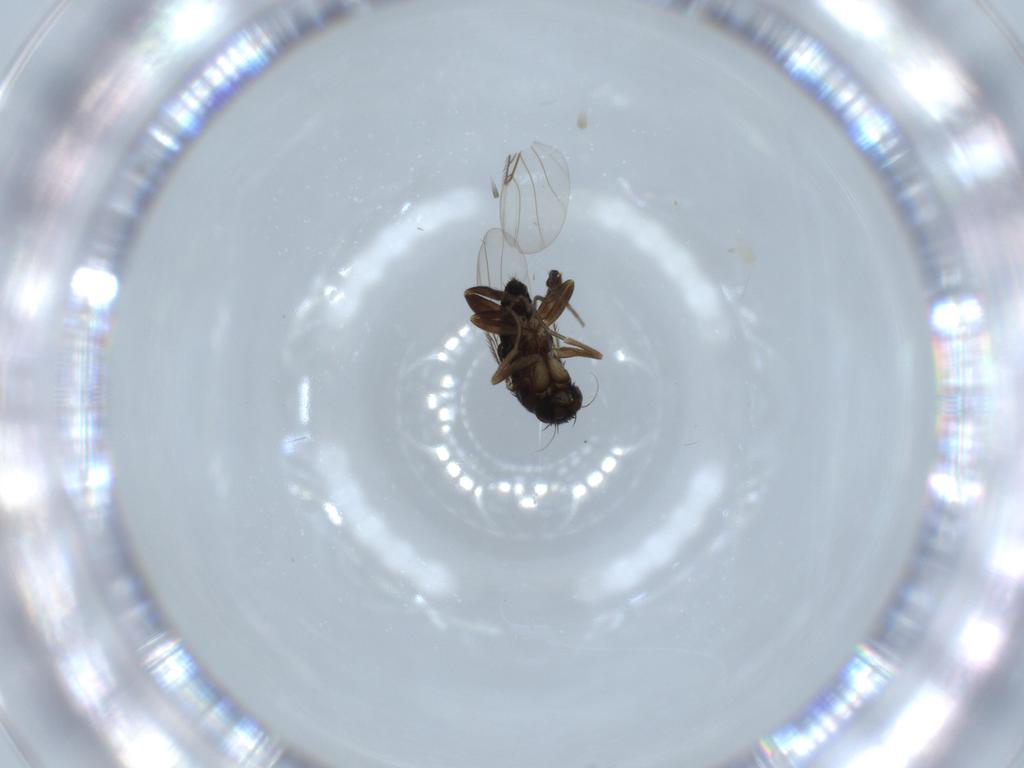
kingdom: Animalia
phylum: Arthropoda
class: Insecta
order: Diptera
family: Phoridae
